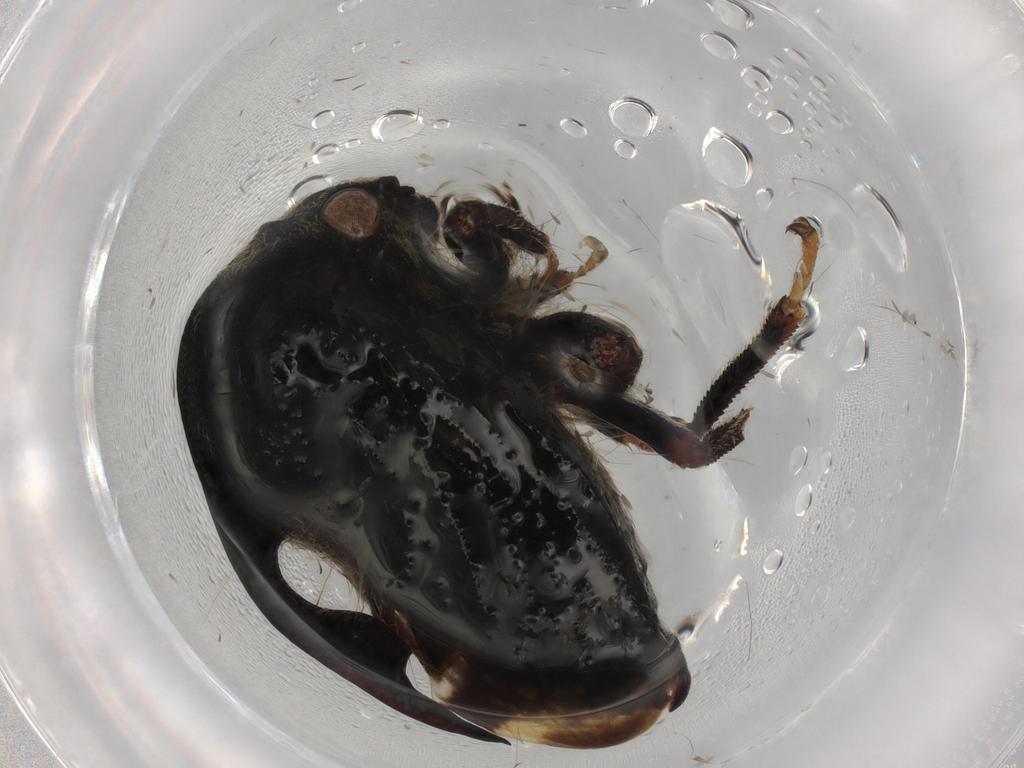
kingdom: Animalia
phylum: Arthropoda
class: Insecta
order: Hemiptera
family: Membracidae
